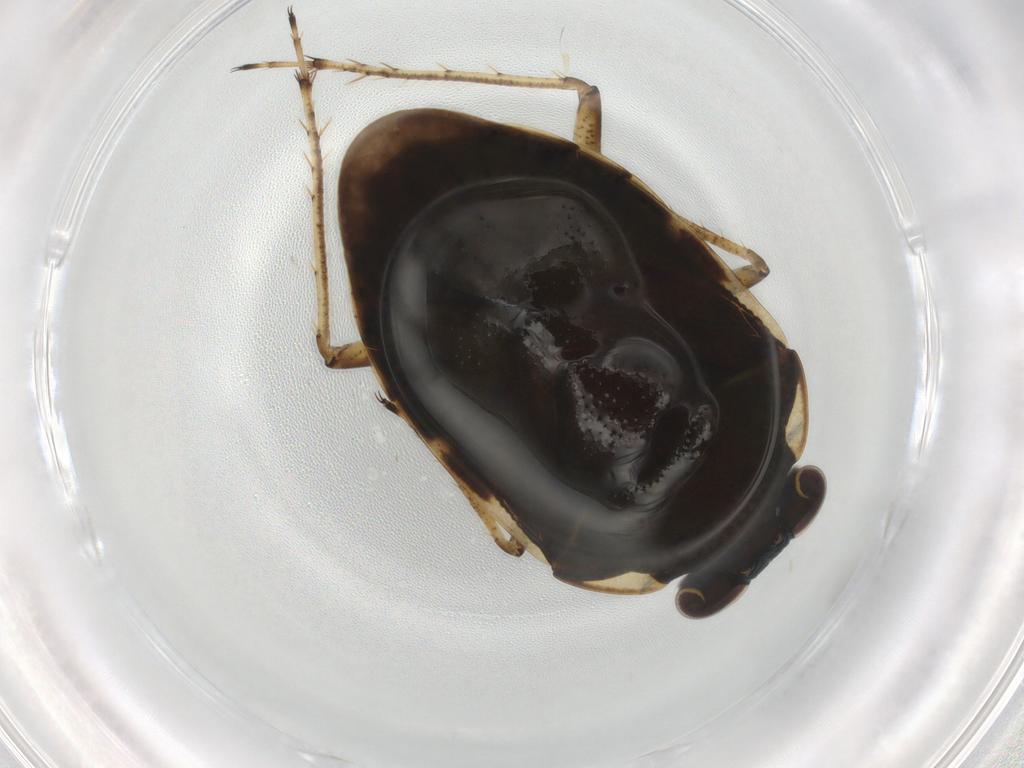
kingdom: Animalia
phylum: Arthropoda
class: Insecta
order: Hemiptera
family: Ochteridae
